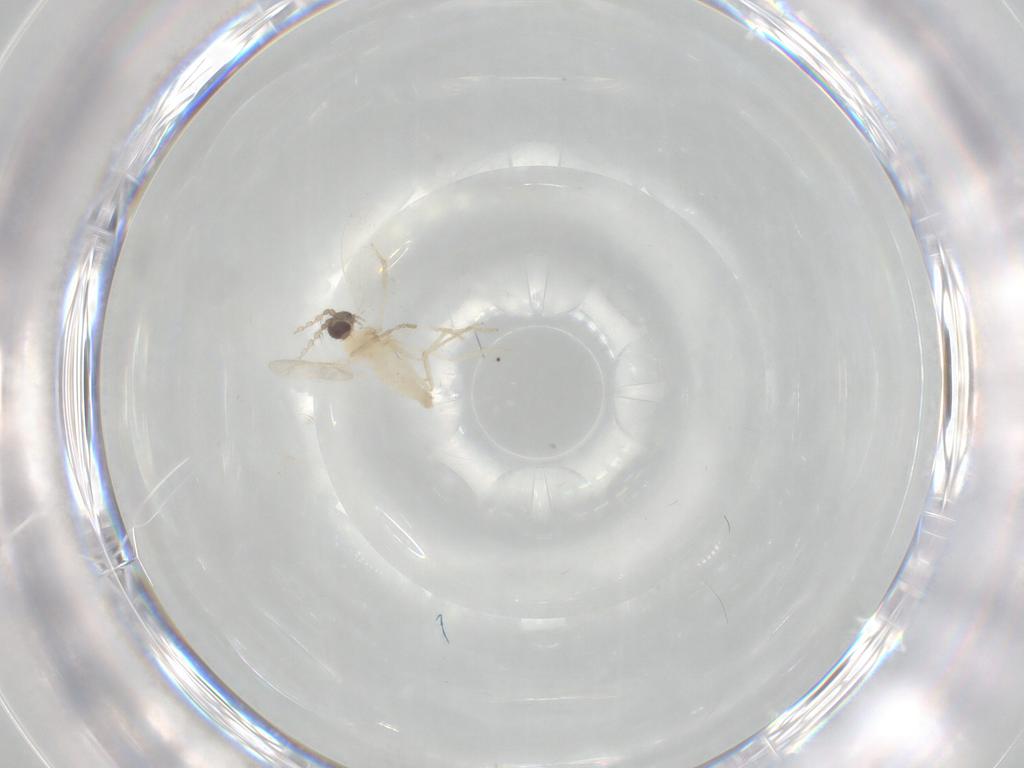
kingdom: Animalia
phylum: Arthropoda
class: Insecta
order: Diptera
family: Cecidomyiidae
